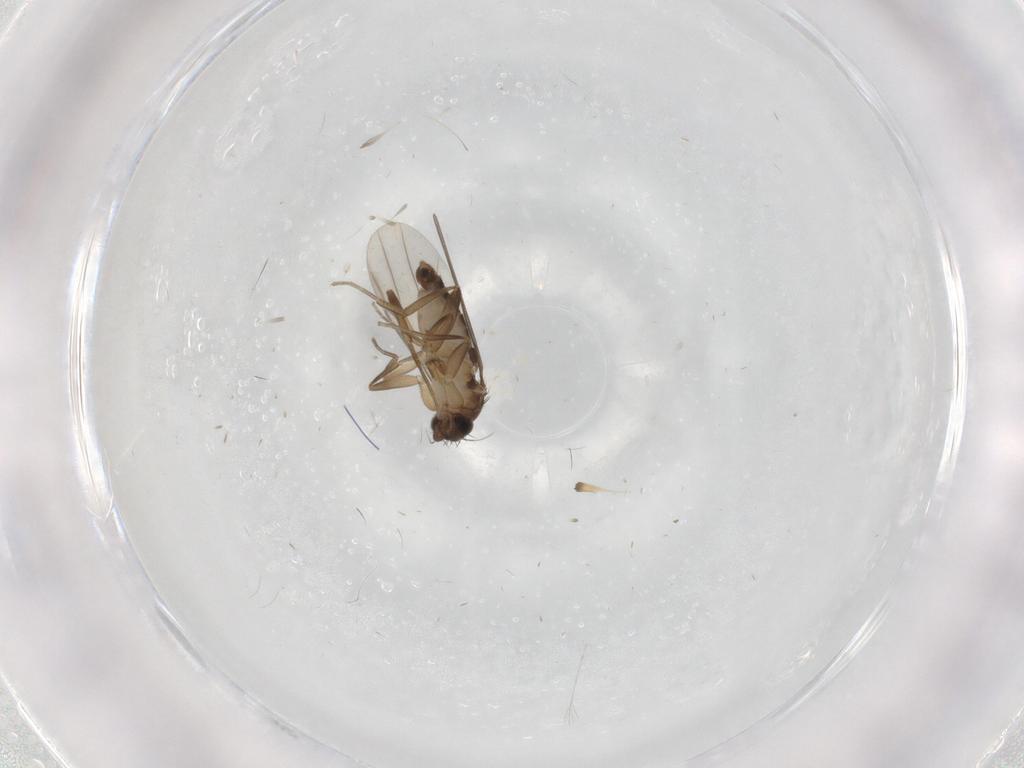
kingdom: Animalia
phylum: Arthropoda
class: Insecta
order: Diptera
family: Phoridae
